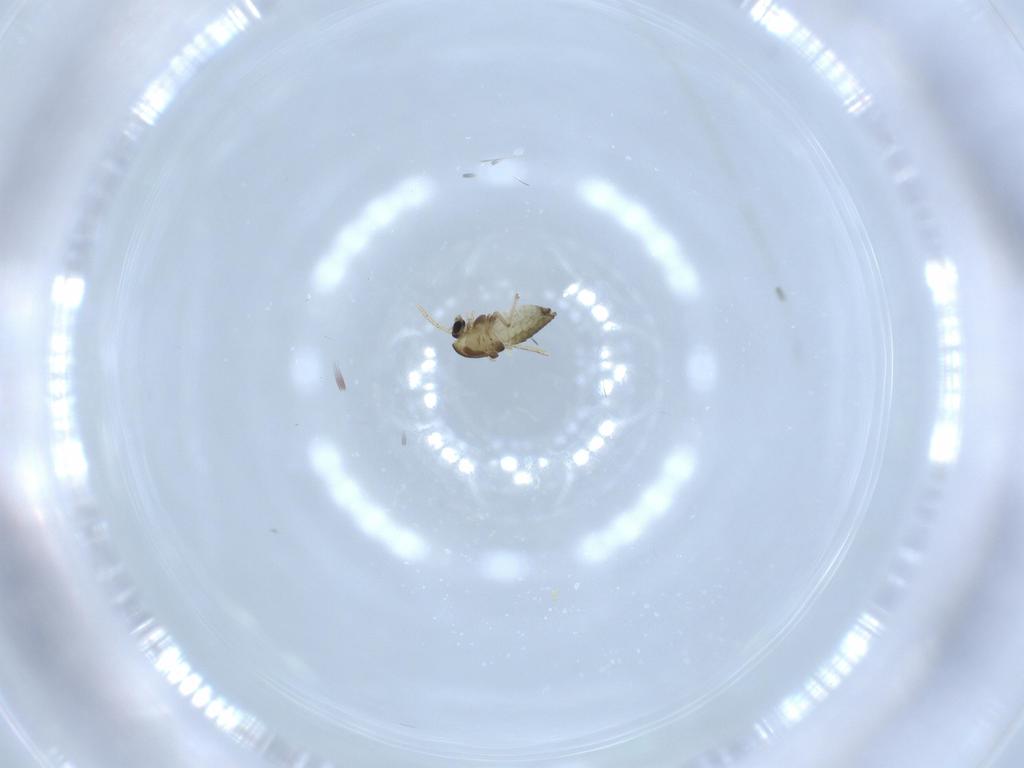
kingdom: Animalia
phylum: Arthropoda
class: Insecta
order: Diptera
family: Chironomidae
